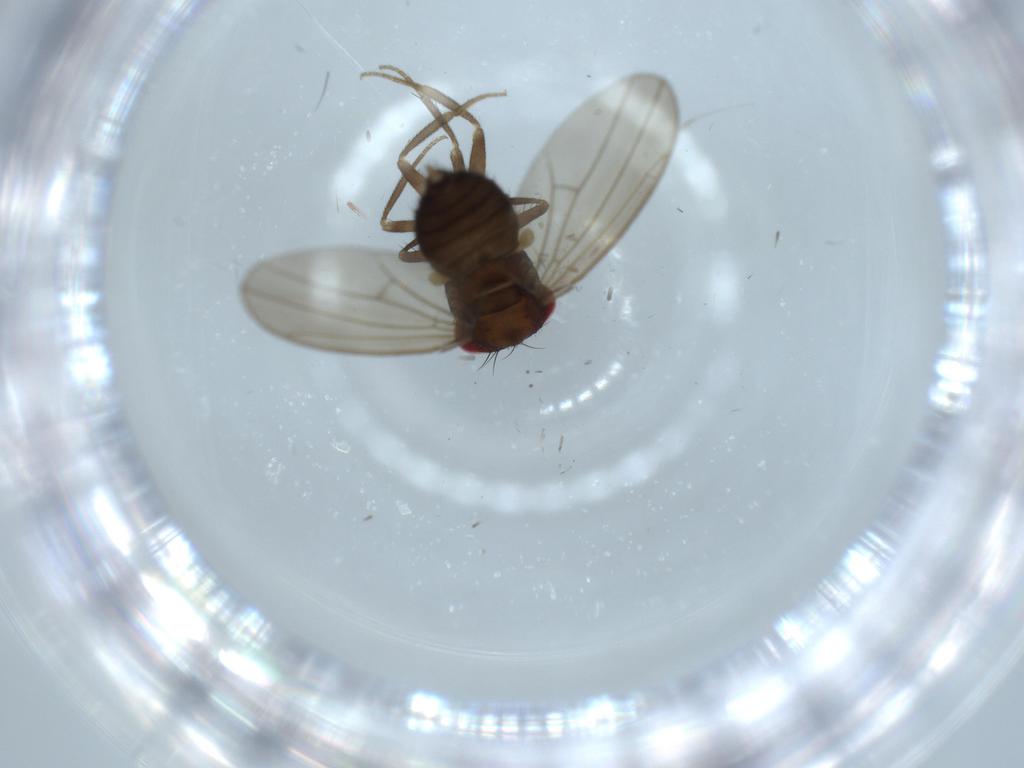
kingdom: Animalia
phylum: Arthropoda
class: Insecta
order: Diptera
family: Drosophilidae
